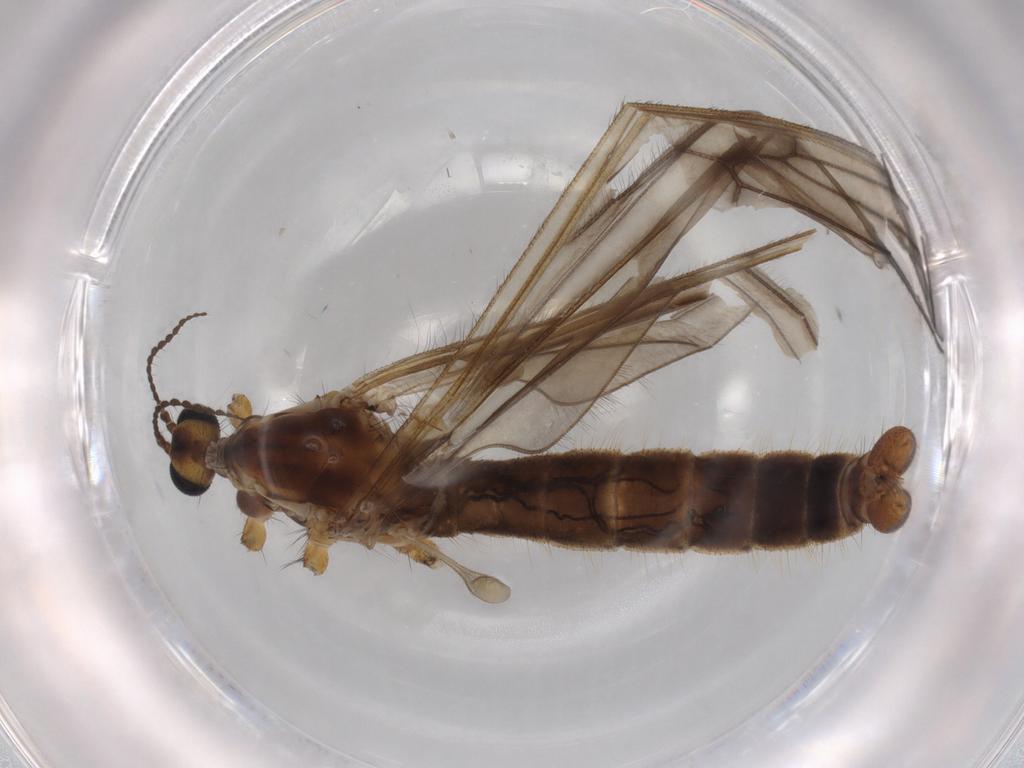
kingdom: Animalia
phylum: Arthropoda
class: Insecta
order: Diptera
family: Limoniidae
